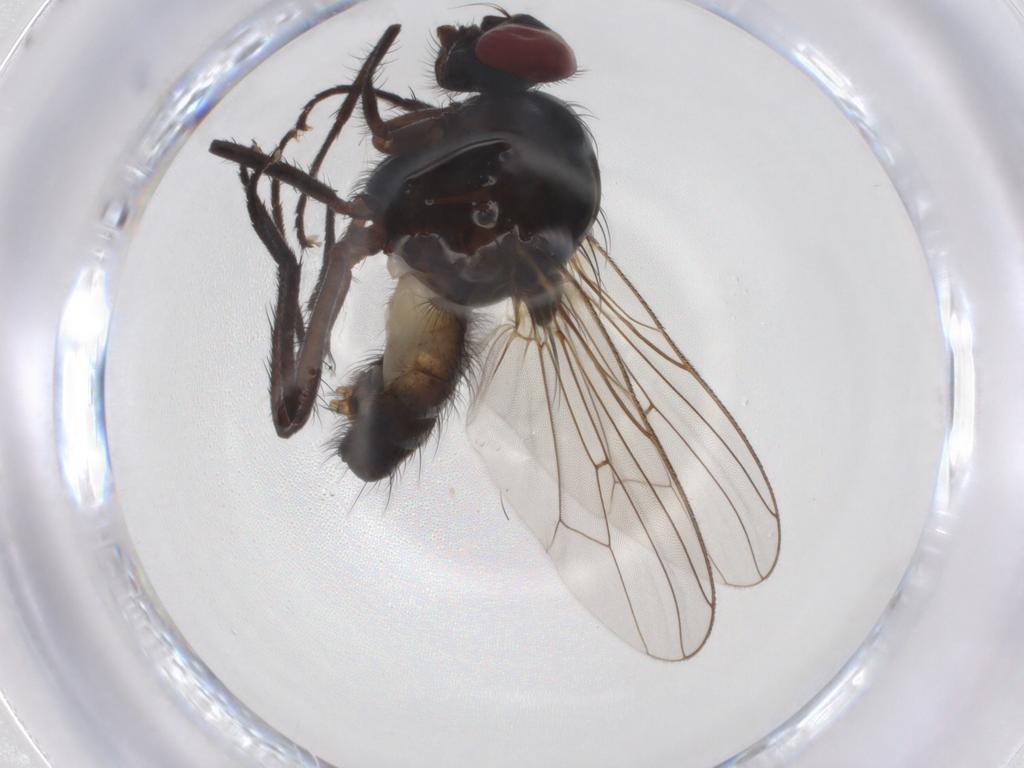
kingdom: Animalia
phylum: Arthropoda
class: Insecta
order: Diptera
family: Anthomyiidae
